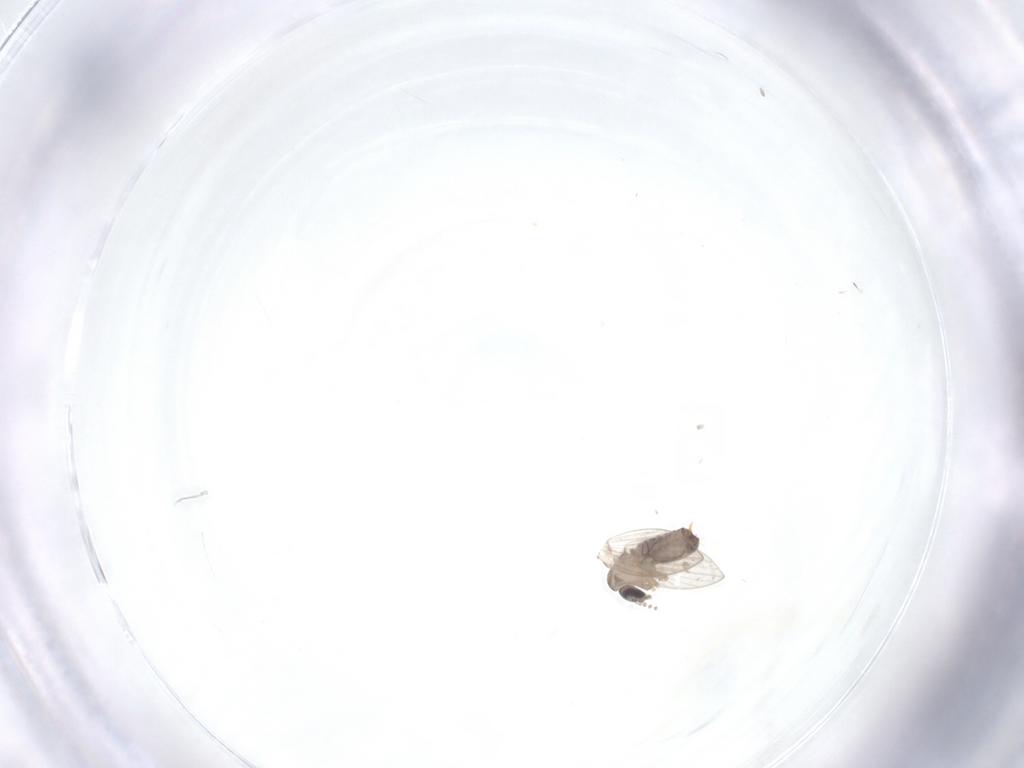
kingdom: Animalia
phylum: Arthropoda
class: Insecta
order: Diptera
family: Psychodidae
